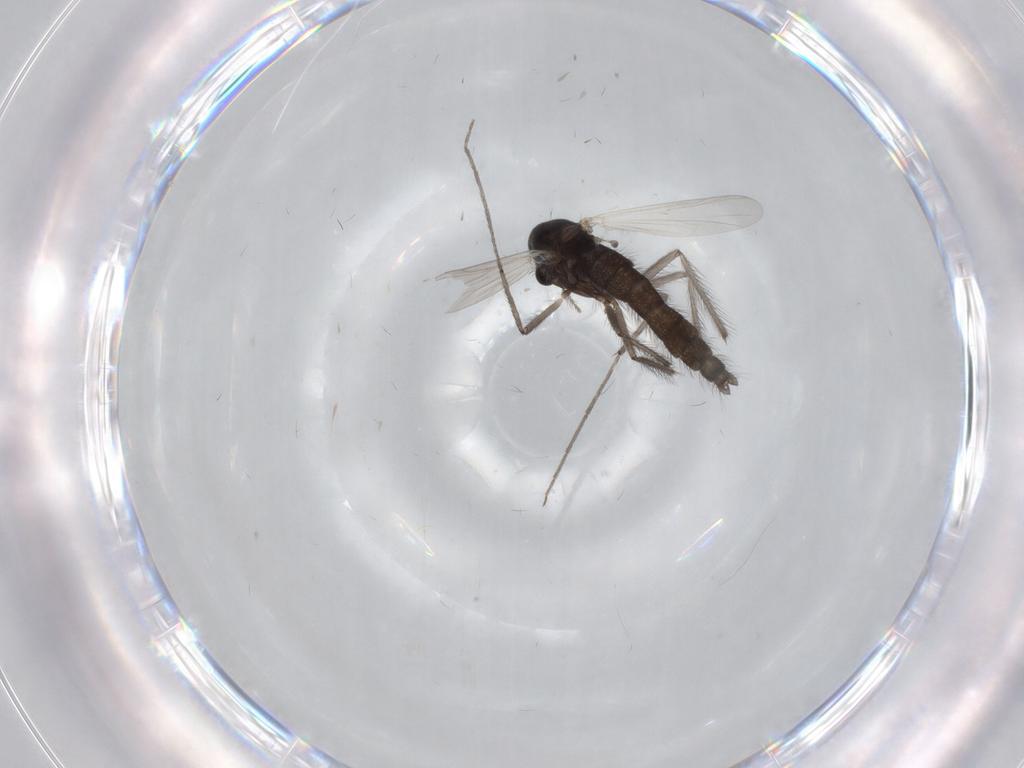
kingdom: Animalia
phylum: Arthropoda
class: Insecta
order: Diptera
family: Chironomidae
